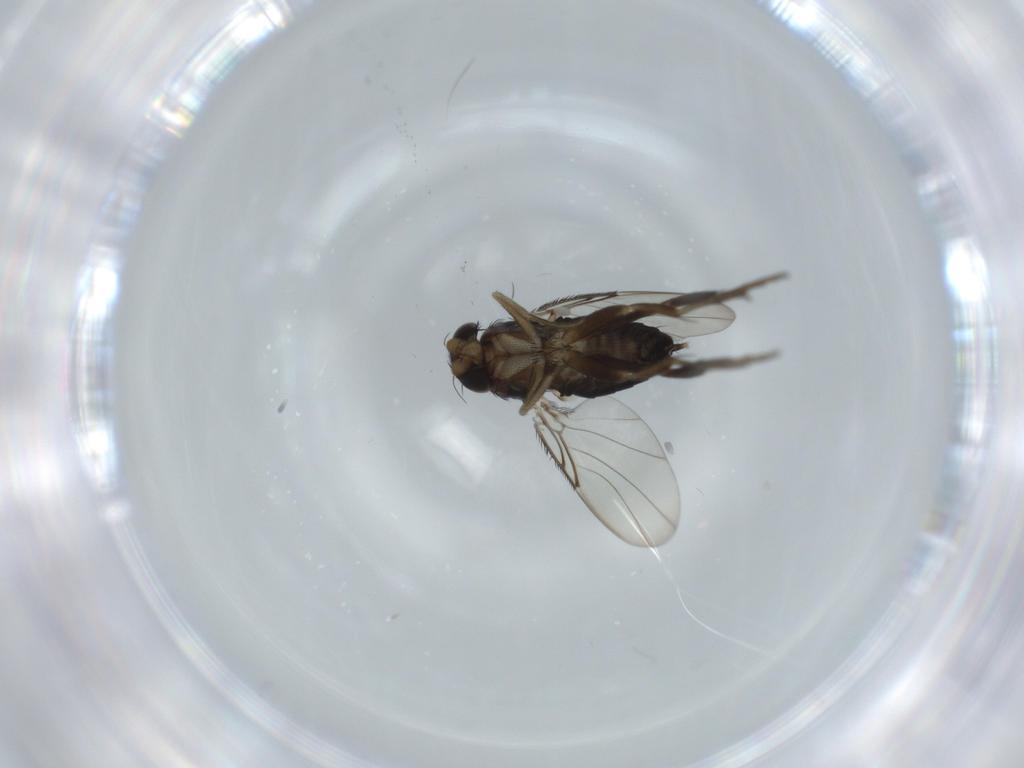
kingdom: Animalia
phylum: Arthropoda
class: Insecta
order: Diptera
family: Phoridae
